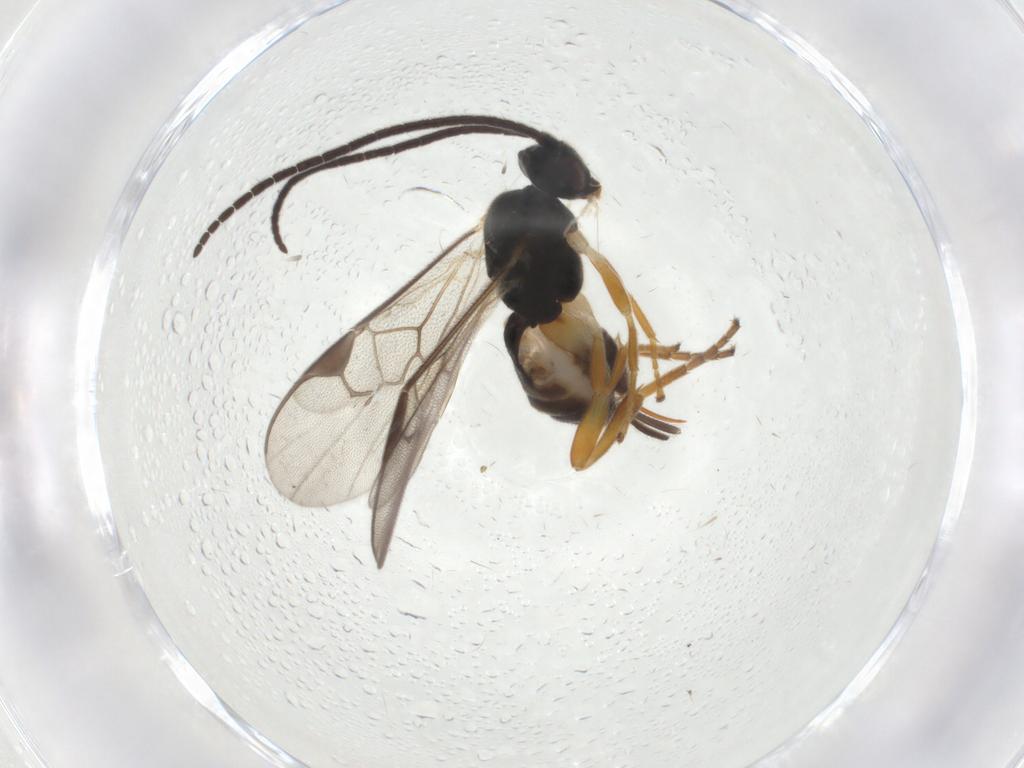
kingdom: Animalia
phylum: Arthropoda
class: Insecta
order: Hymenoptera
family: Braconidae
